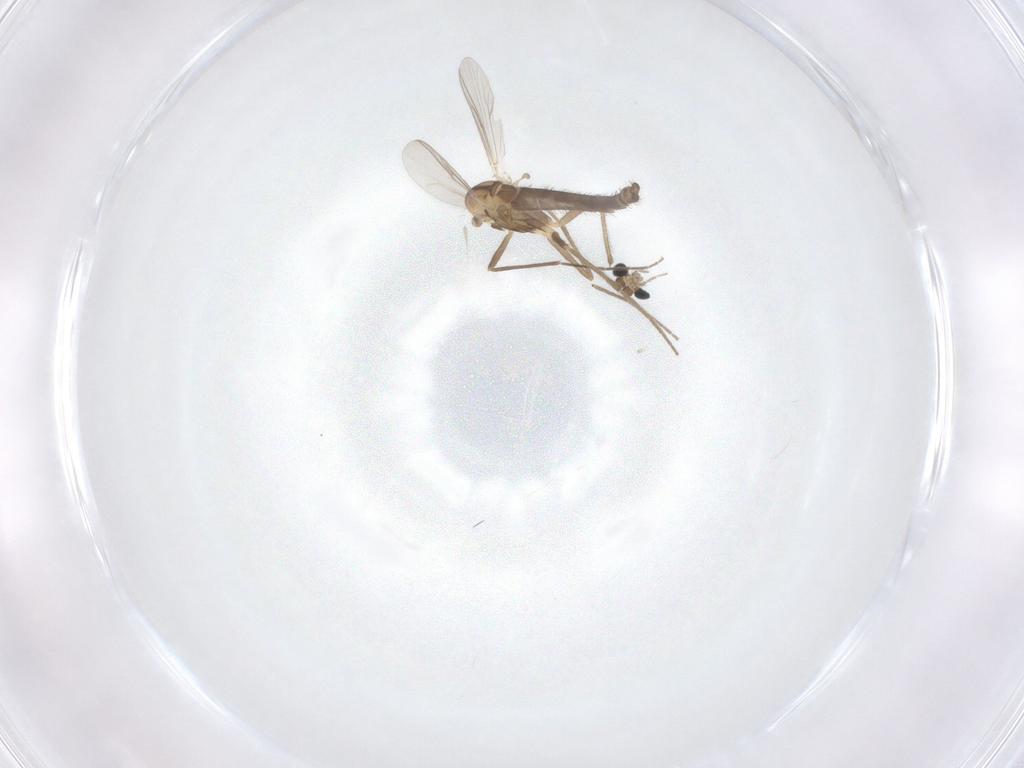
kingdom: Animalia
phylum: Arthropoda
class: Insecta
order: Diptera
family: Chironomidae
